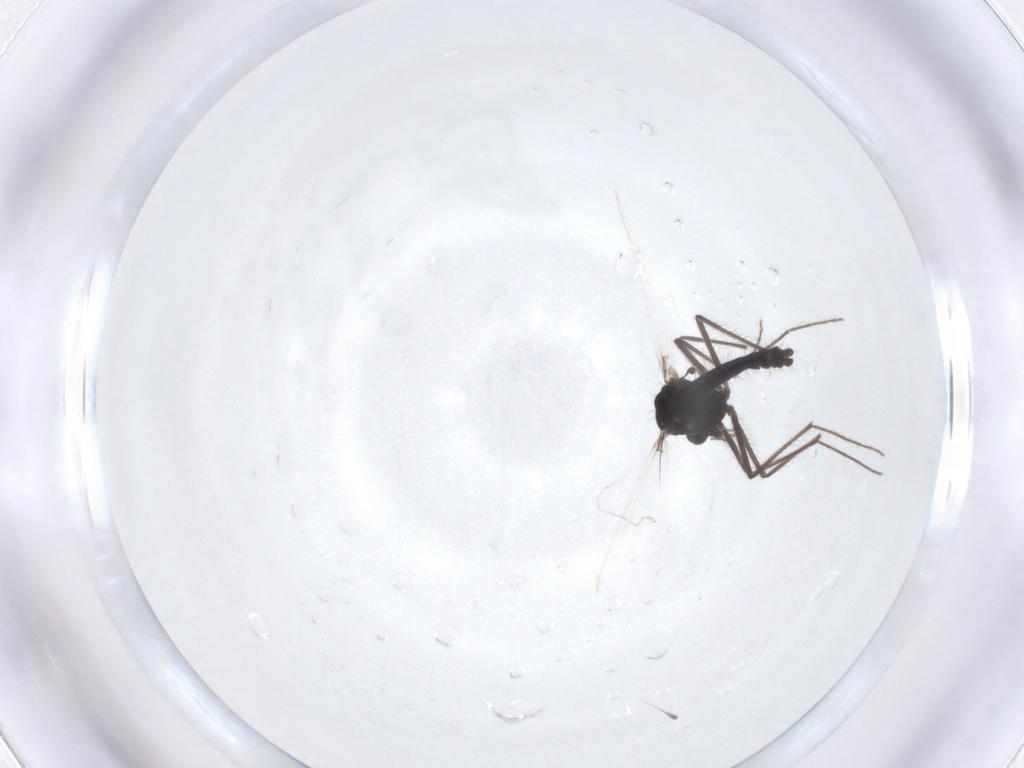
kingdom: Animalia
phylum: Arthropoda
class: Insecta
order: Diptera
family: Chironomidae
